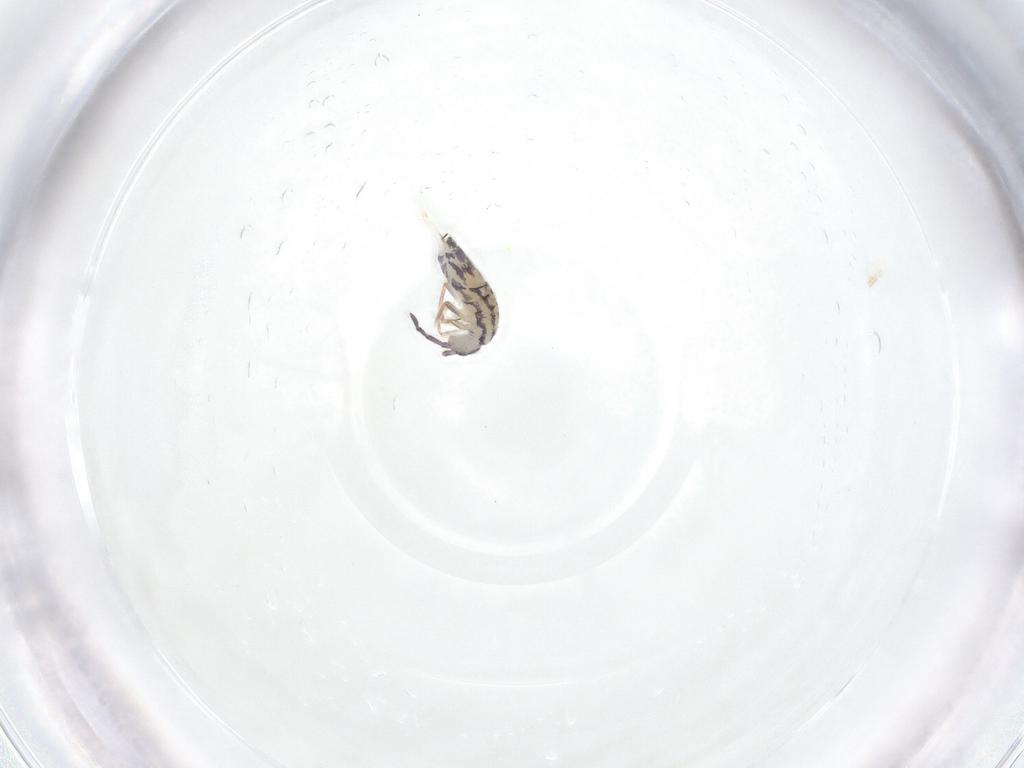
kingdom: Animalia
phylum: Arthropoda
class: Collembola
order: Entomobryomorpha
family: Entomobryidae
